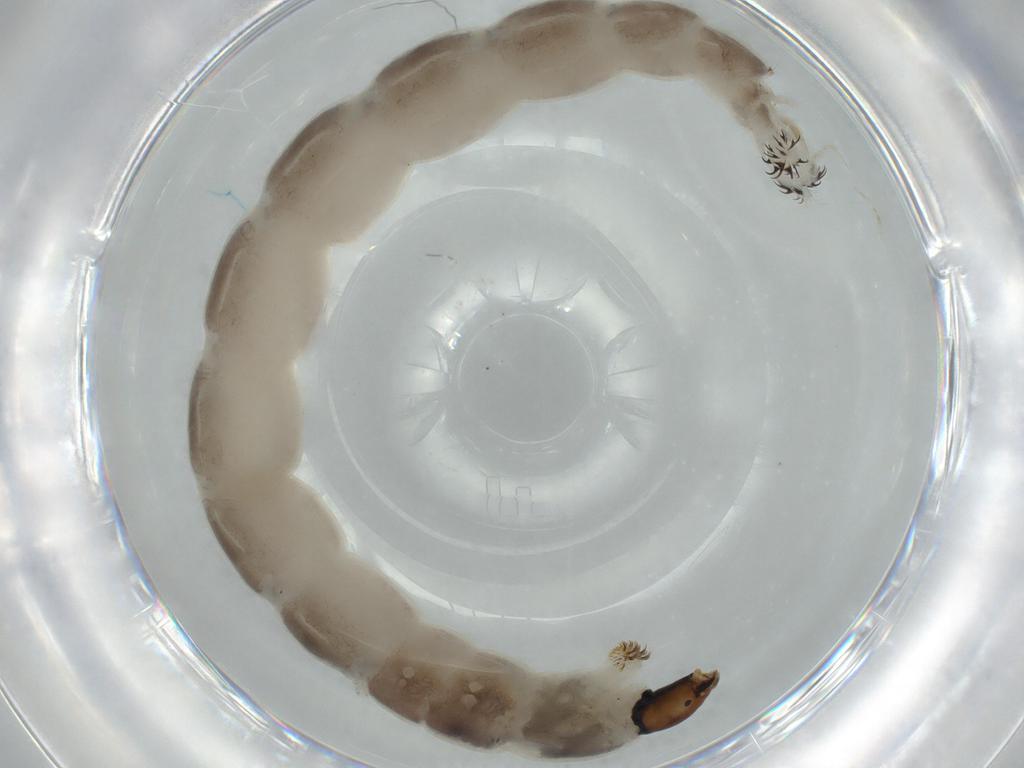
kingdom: Animalia
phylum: Arthropoda
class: Insecta
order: Diptera
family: Chironomidae
